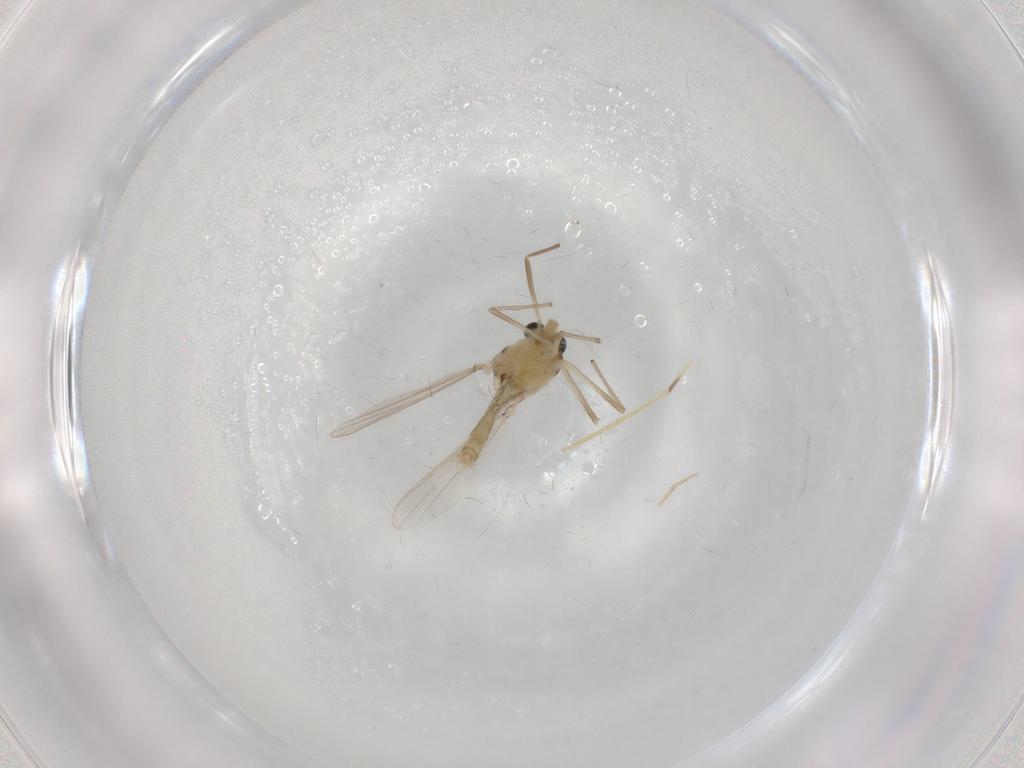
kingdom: Animalia
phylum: Arthropoda
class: Insecta
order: Diptera
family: Chironomidae
